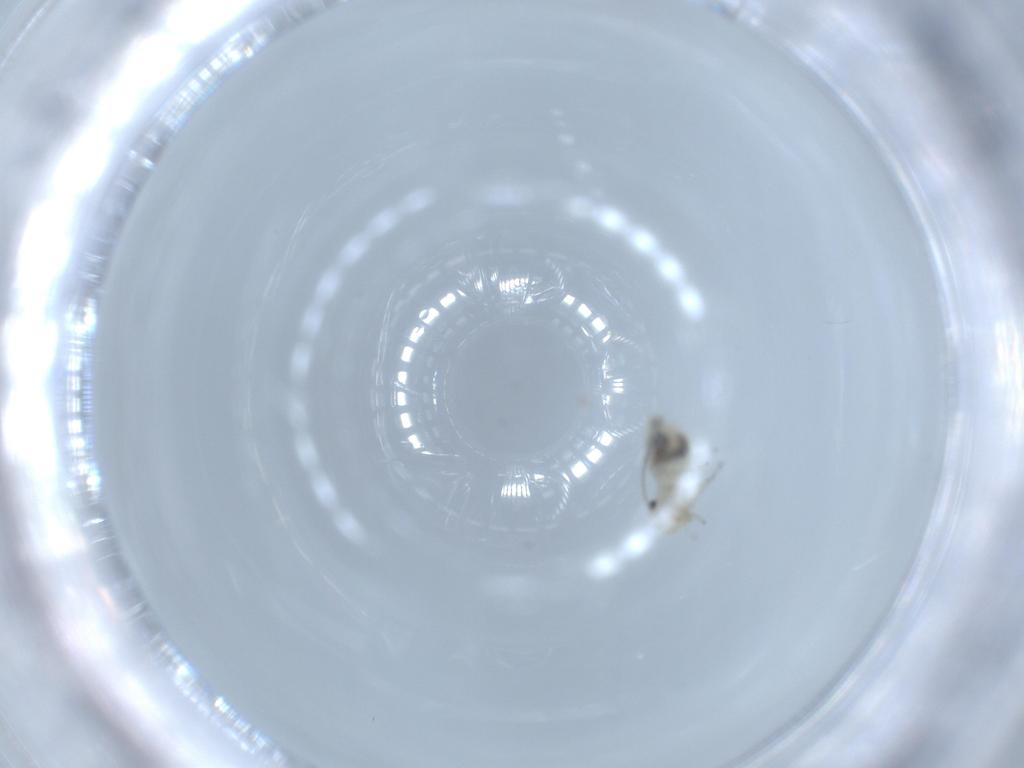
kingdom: Animalia
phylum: Arthropoda
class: Insecta
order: Psocodea
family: Caeciliusidae
